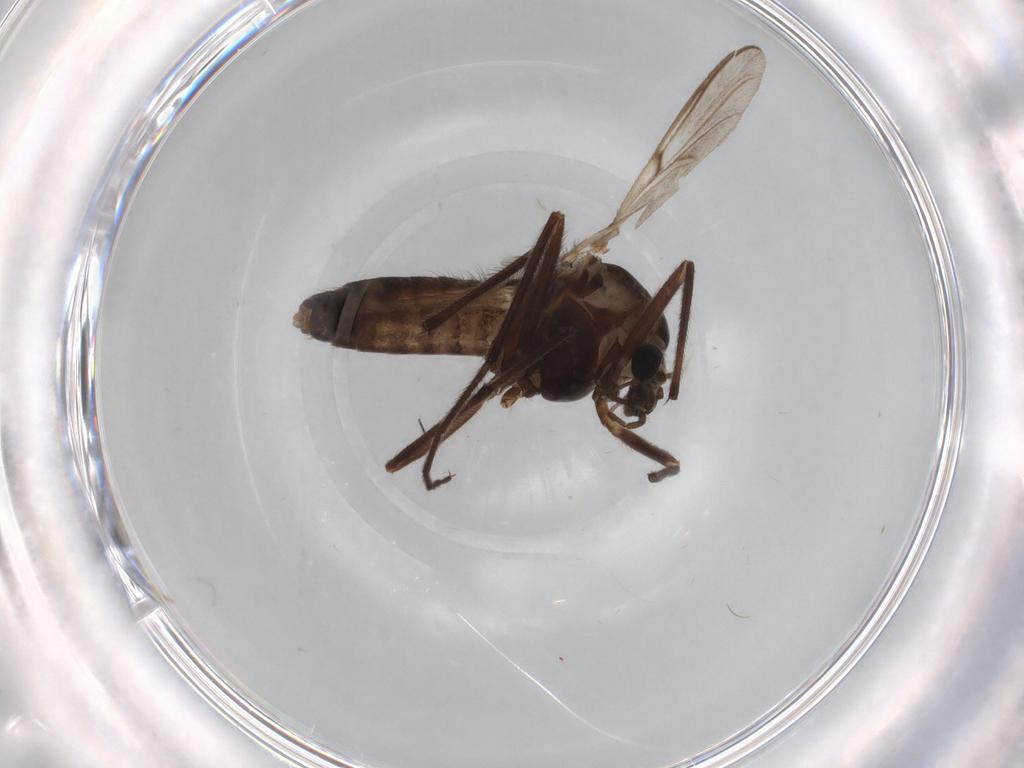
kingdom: Animalia
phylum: Arthropoda
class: Insecta
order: Diptera
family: Chironomidae
